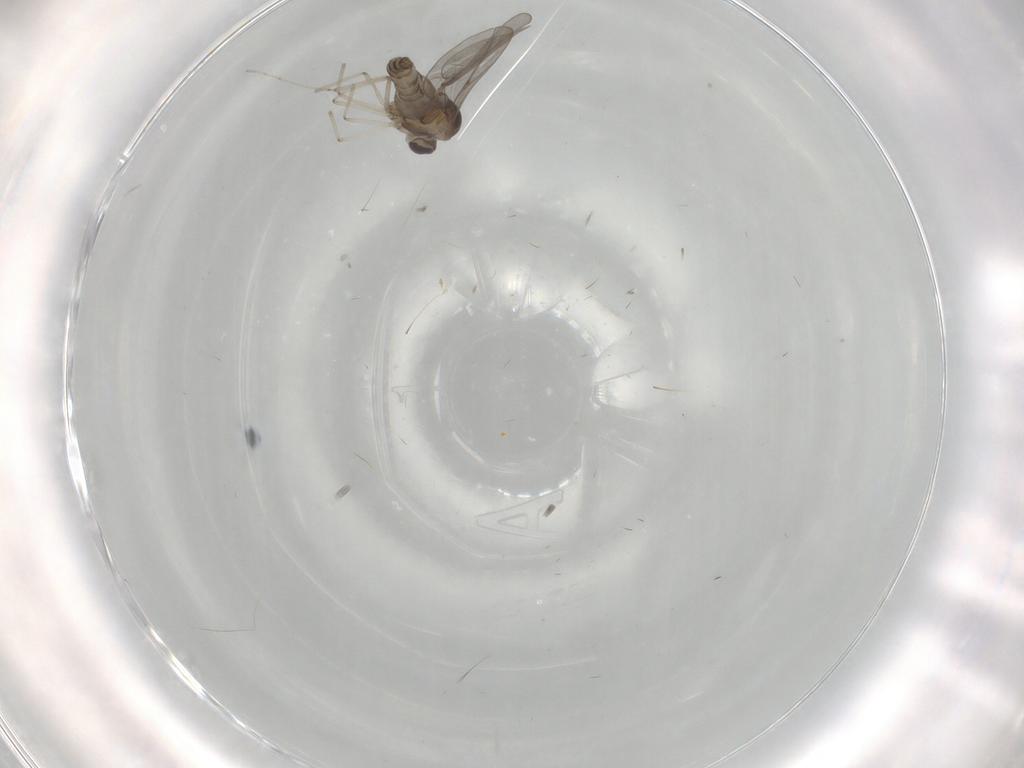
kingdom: Animalia
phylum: Arthropoda
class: Insecta
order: Diptera
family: Cecidomyiidae
